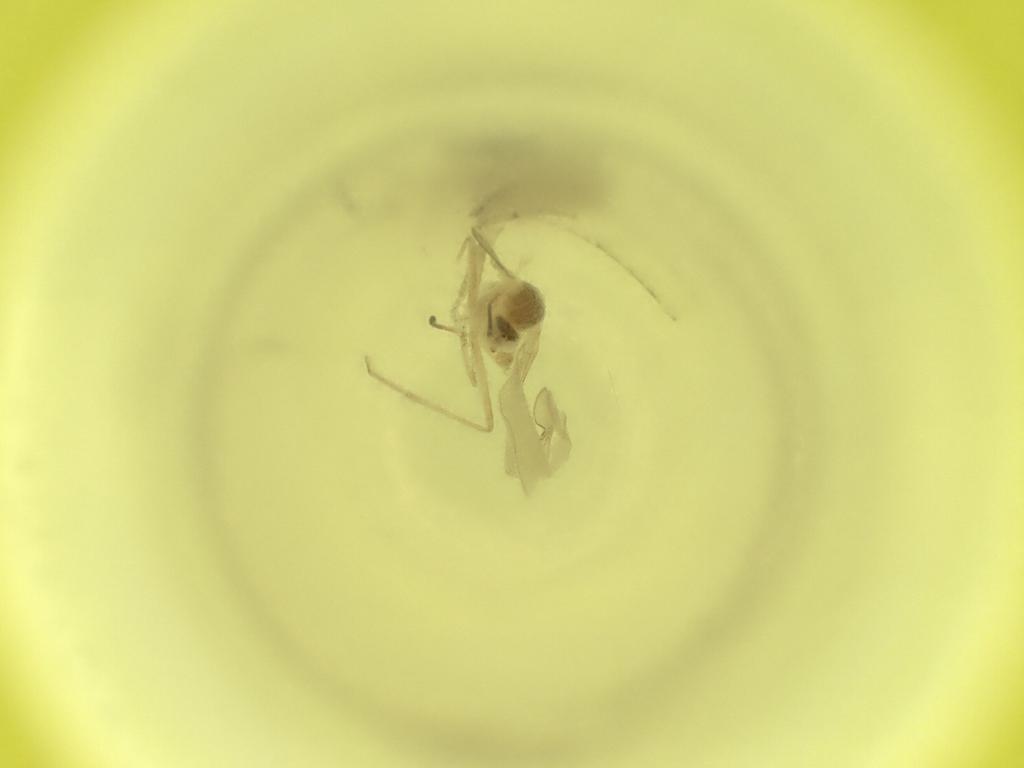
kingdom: Animalia
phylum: Arthropoda
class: Insecta
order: Diptera
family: Cecidomyiidae
